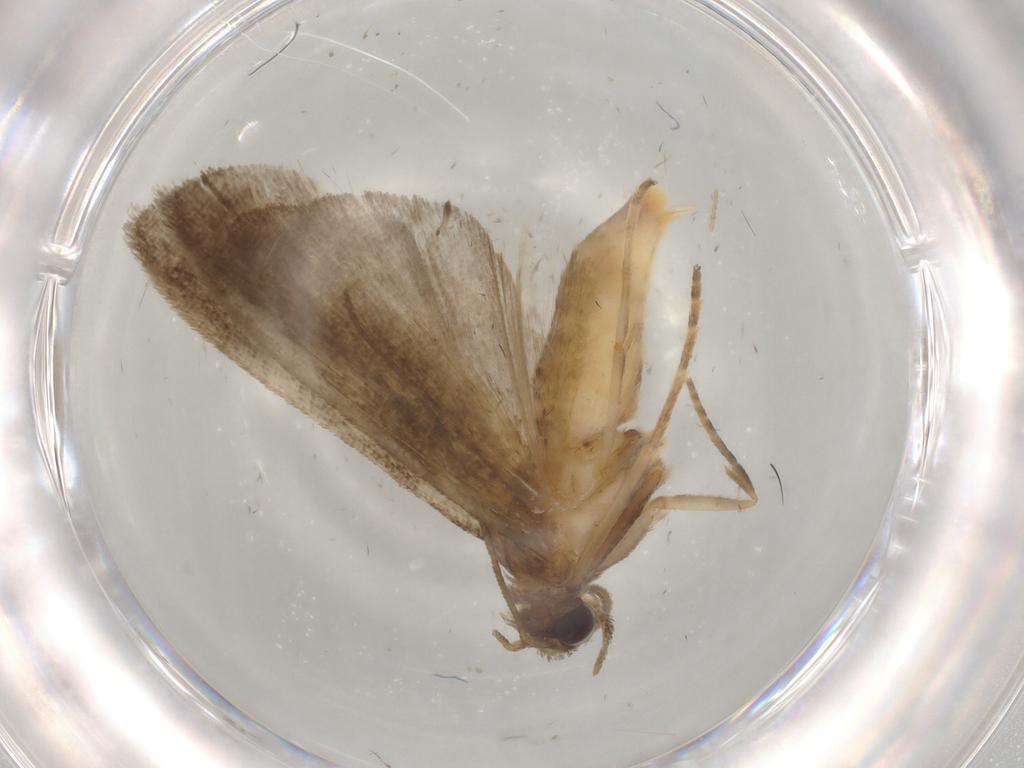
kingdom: Animalia
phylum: Arthropoda
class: Insecta
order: Lepidoptera
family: Noctuidae
